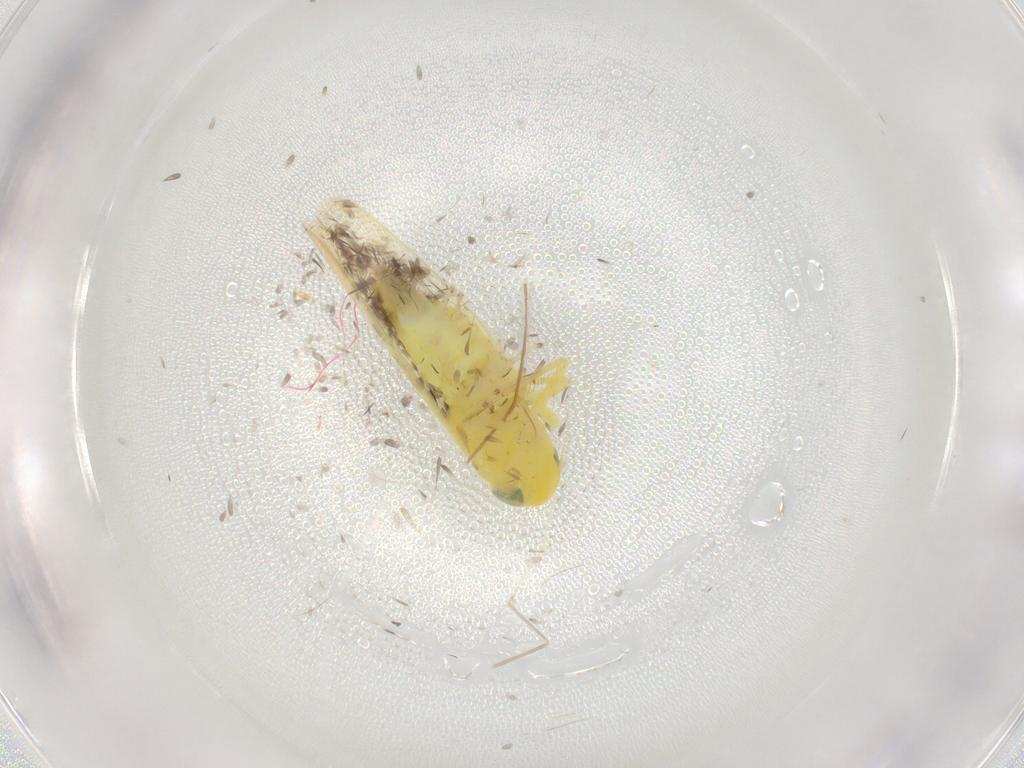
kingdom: Animalia
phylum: Arthropoda
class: Insecta
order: Hemiptera
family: Cicadellidae
